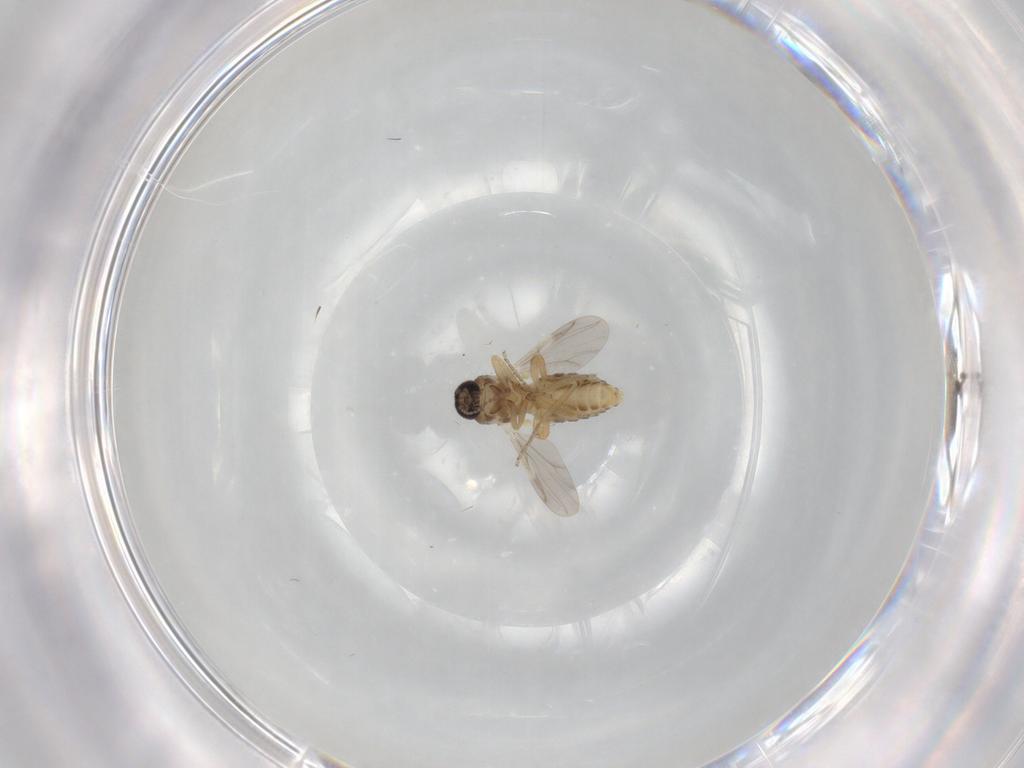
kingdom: Animalia
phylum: Arthropoda
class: Insecta
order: Diptera
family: Ceratopogonidae
